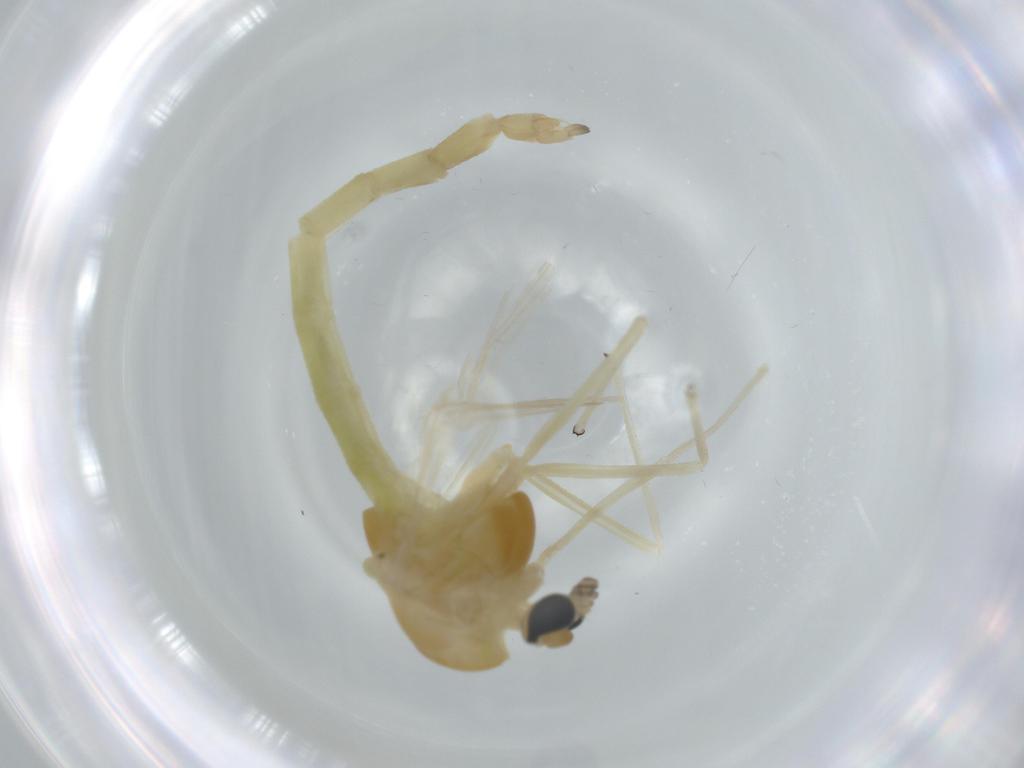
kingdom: Animalia
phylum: Arthropoda
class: Insecta
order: Diptera
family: Chironomidae
